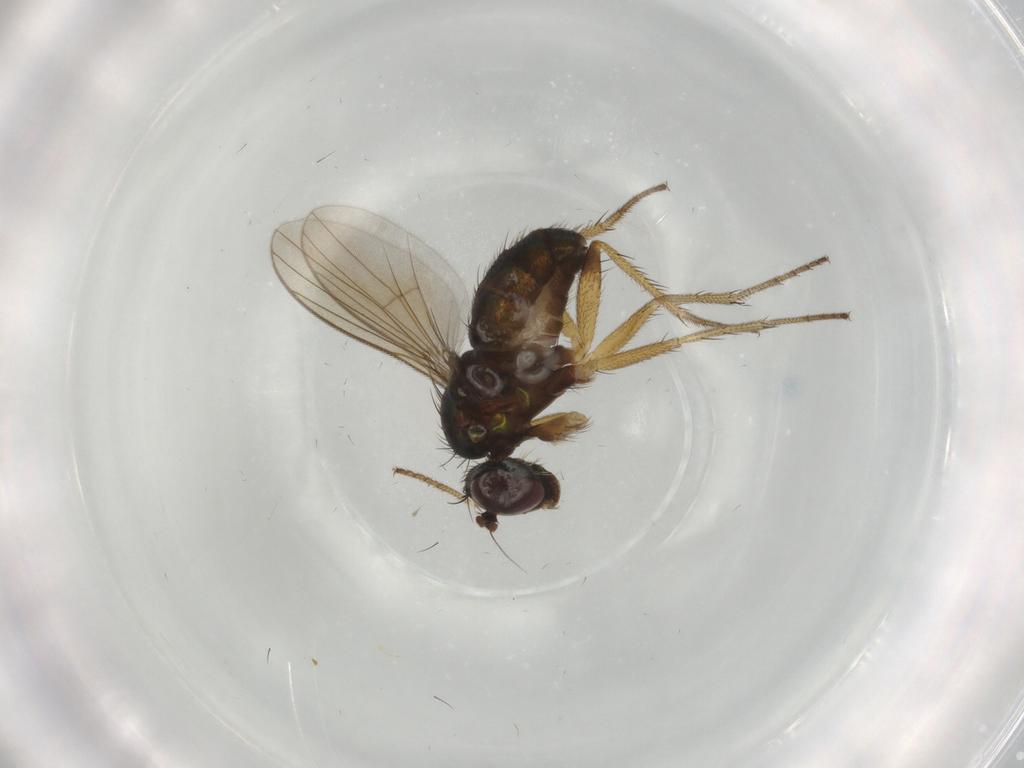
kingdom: Animalia
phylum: Arthropoda
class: Insecta
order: Diptera
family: Dolichopodidae
